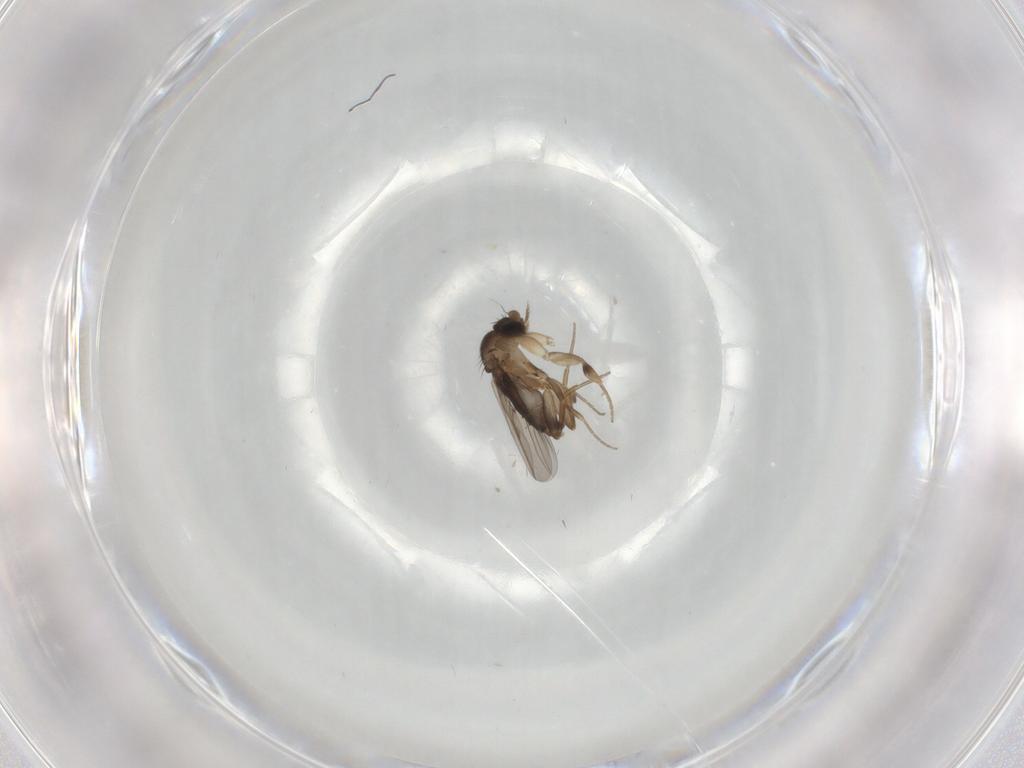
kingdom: Animalia
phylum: Arthropoda
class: Insecta
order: Diptera
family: Phoridae
